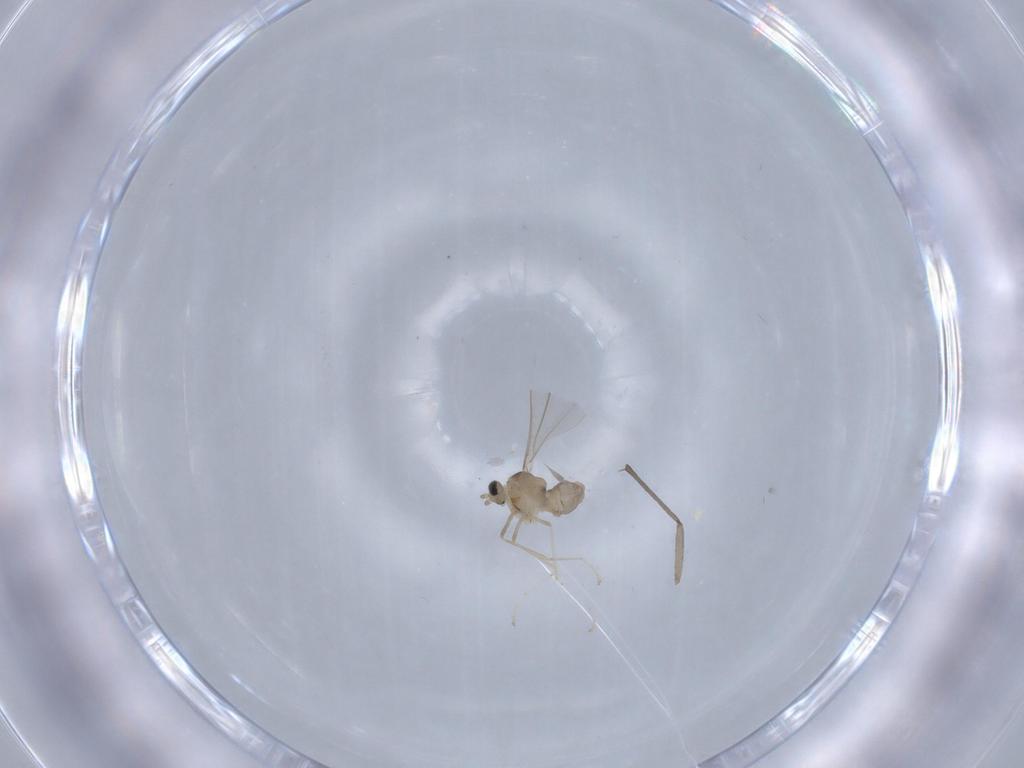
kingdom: Animalia
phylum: Arthropoda
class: Insecta
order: Diptera
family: Cecidomyiidae
